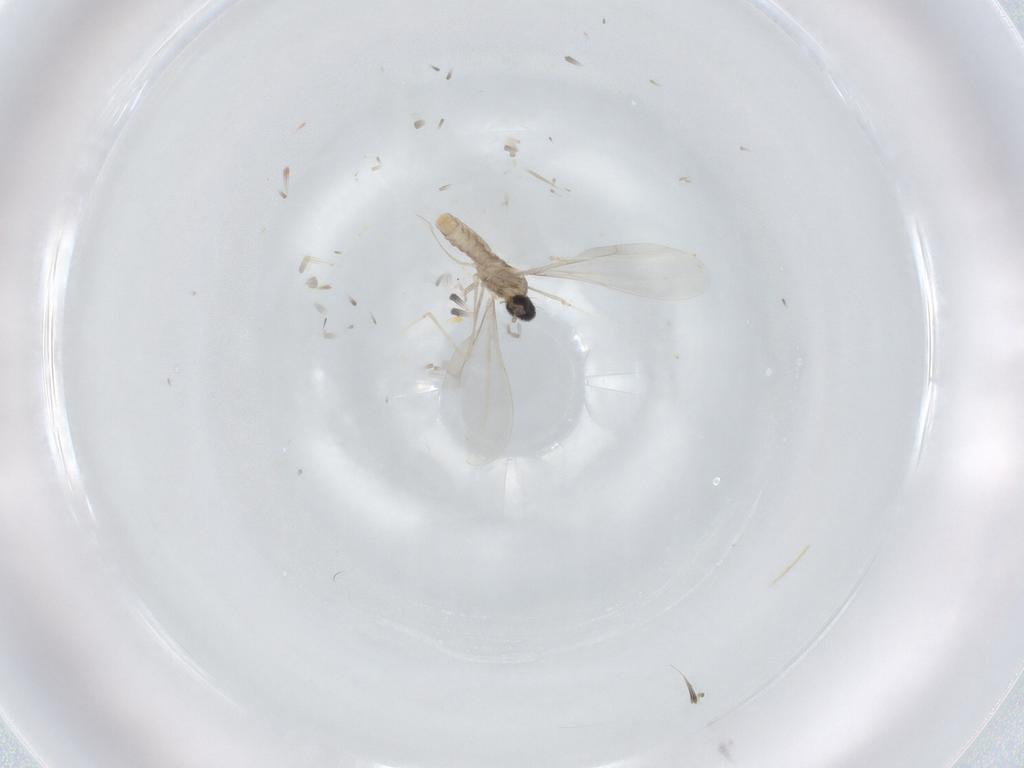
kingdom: Animalia
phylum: Arthropoda
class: Insecta
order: Diptera
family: Cecidomyiidae
